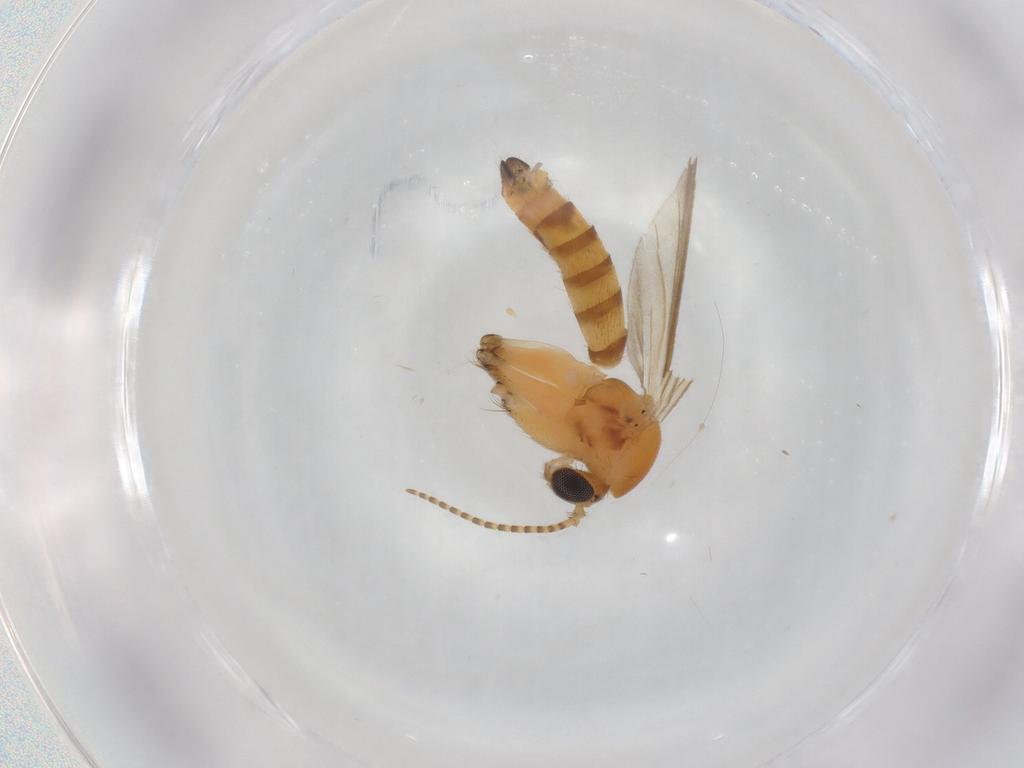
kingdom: Animalia
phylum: Arthropoda
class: Insecta
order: Diptera
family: Mycetophilidae
